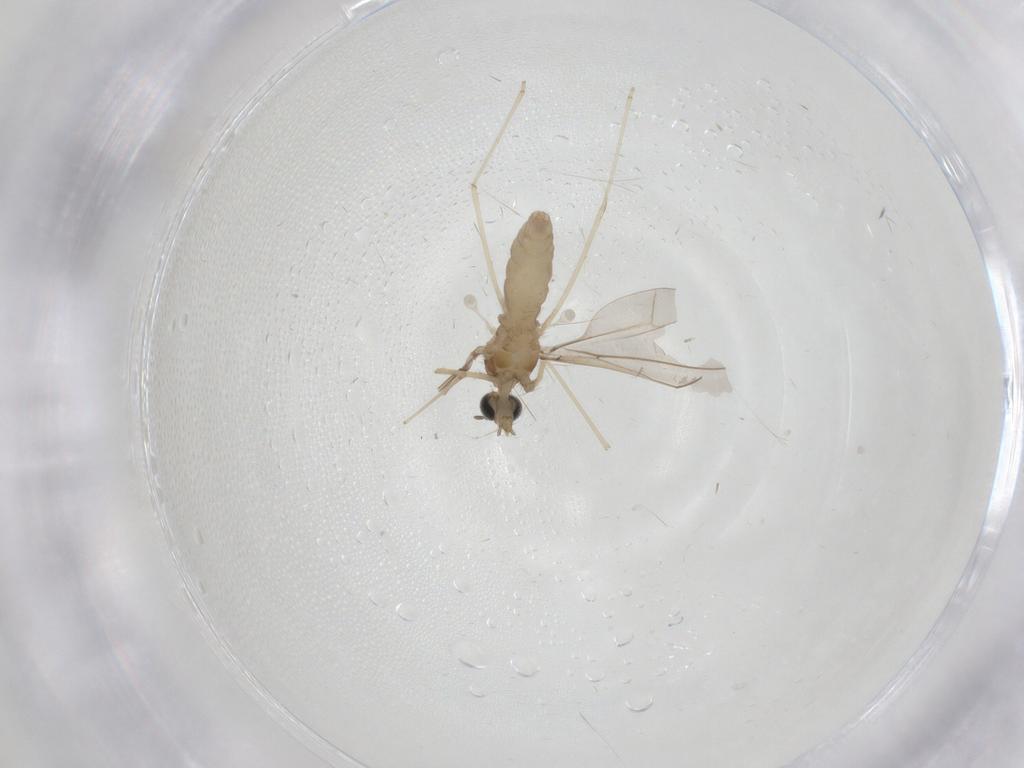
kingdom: Animalia
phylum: Arthropoda
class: Insecta
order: Diptera
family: Cecidomyiidae
